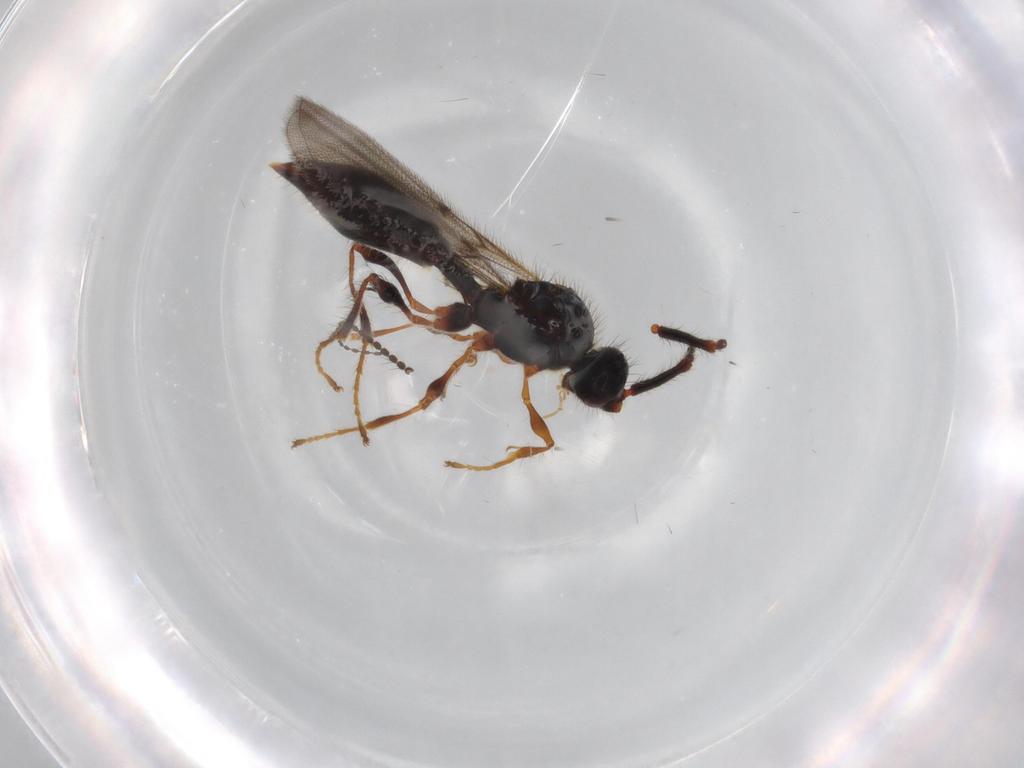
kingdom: Animalia
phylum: Arthropoda
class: Insecta
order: Hymenoptera
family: Diapriidae
